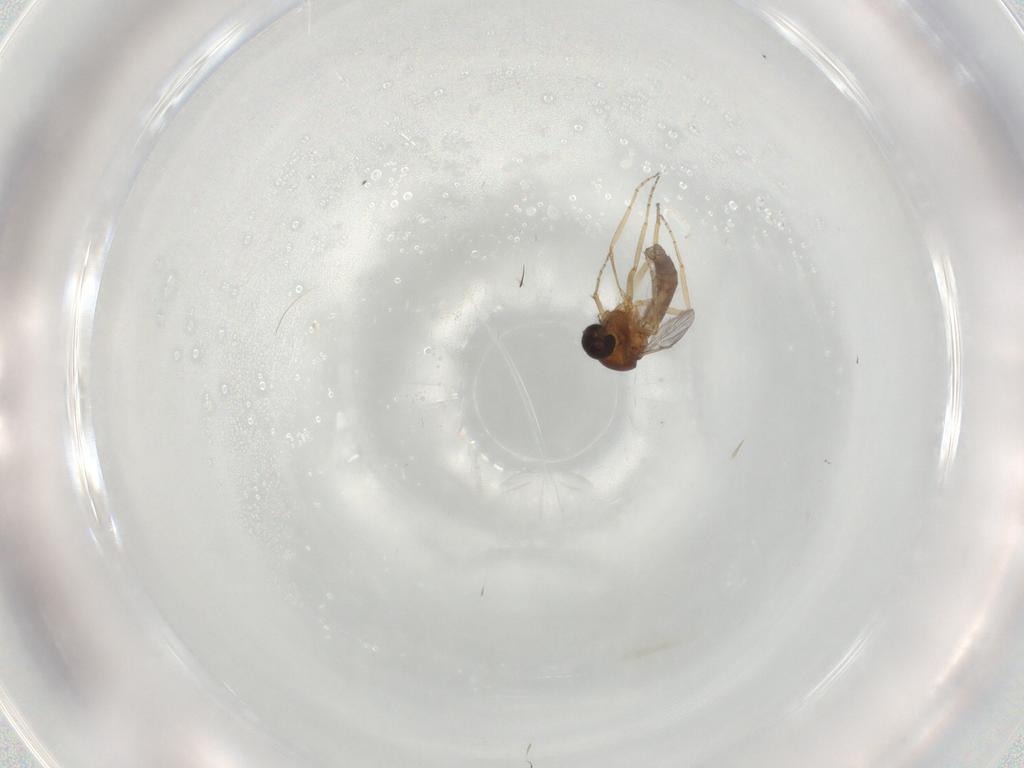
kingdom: Animalia
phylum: Arthropoda
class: Insecta
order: Diptera
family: Ceratopogonidae
